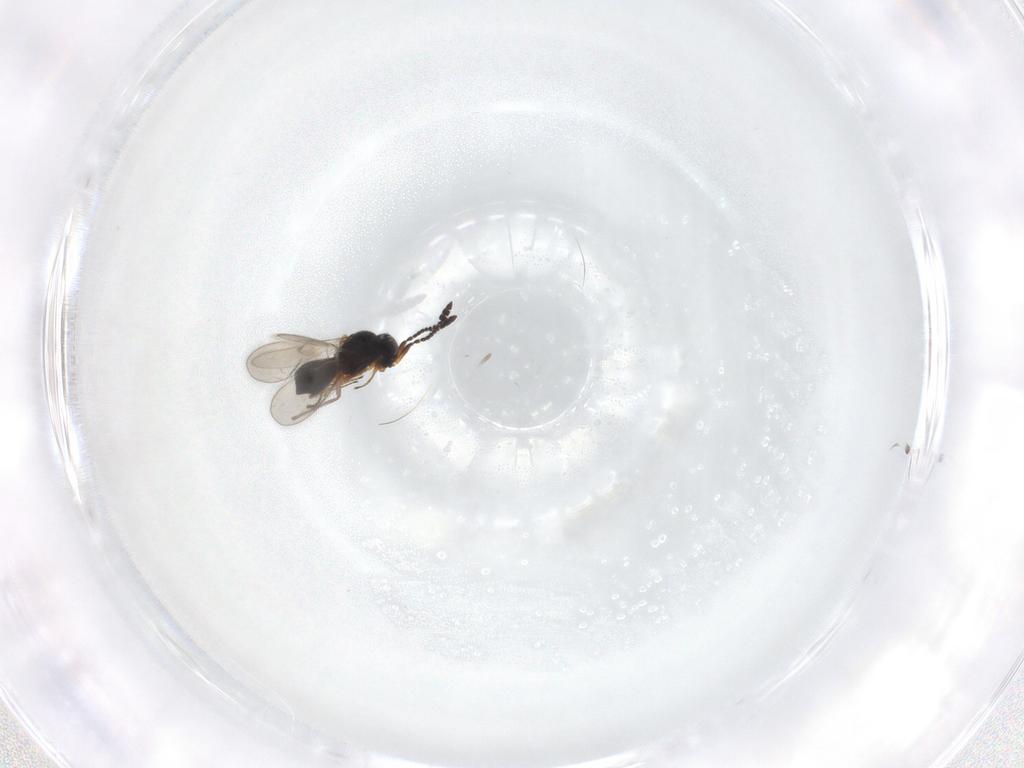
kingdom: Animalia
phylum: Arthropoda
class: Insecta
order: Hymenoptera
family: Scelionidae
